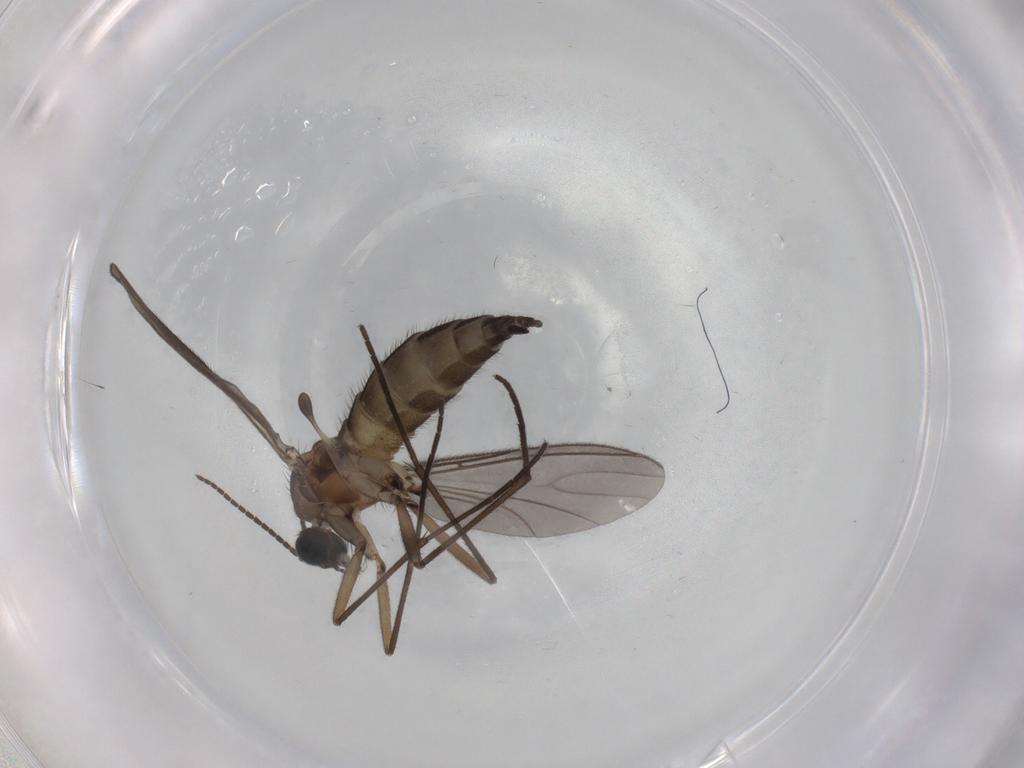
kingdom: Animalia
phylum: Arthropoda
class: Insecta
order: Diptera
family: Sciaridae
